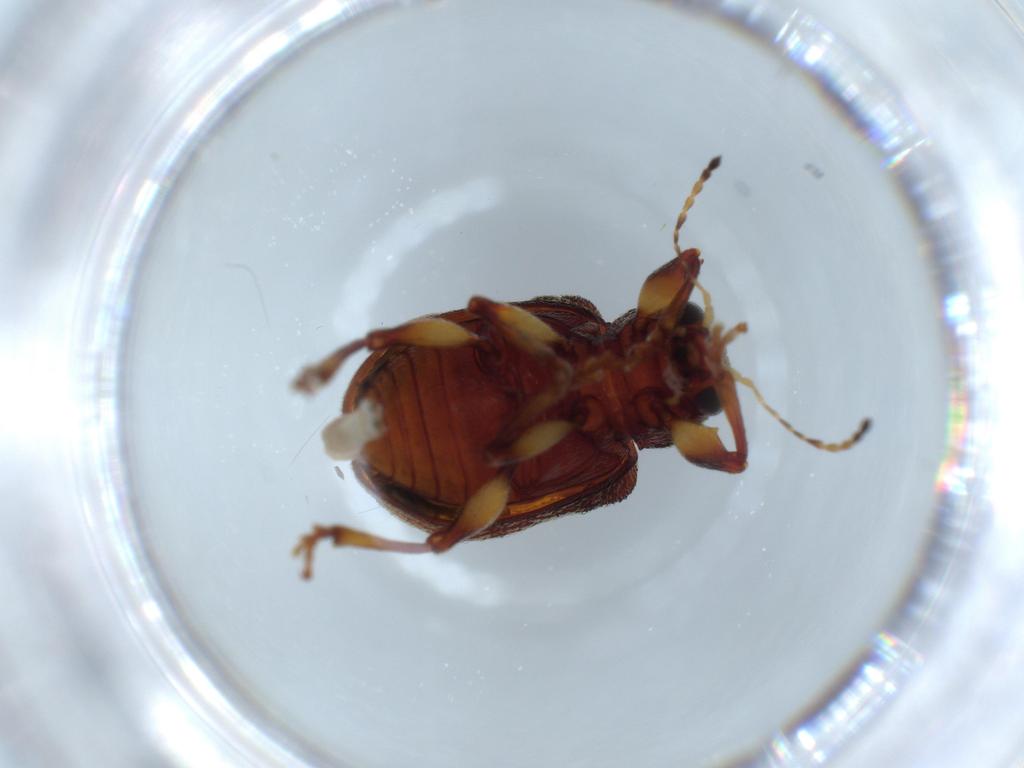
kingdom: Animalia
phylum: Arthropoda
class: Insecta
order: Coleoptera
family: Chrysomelidae
